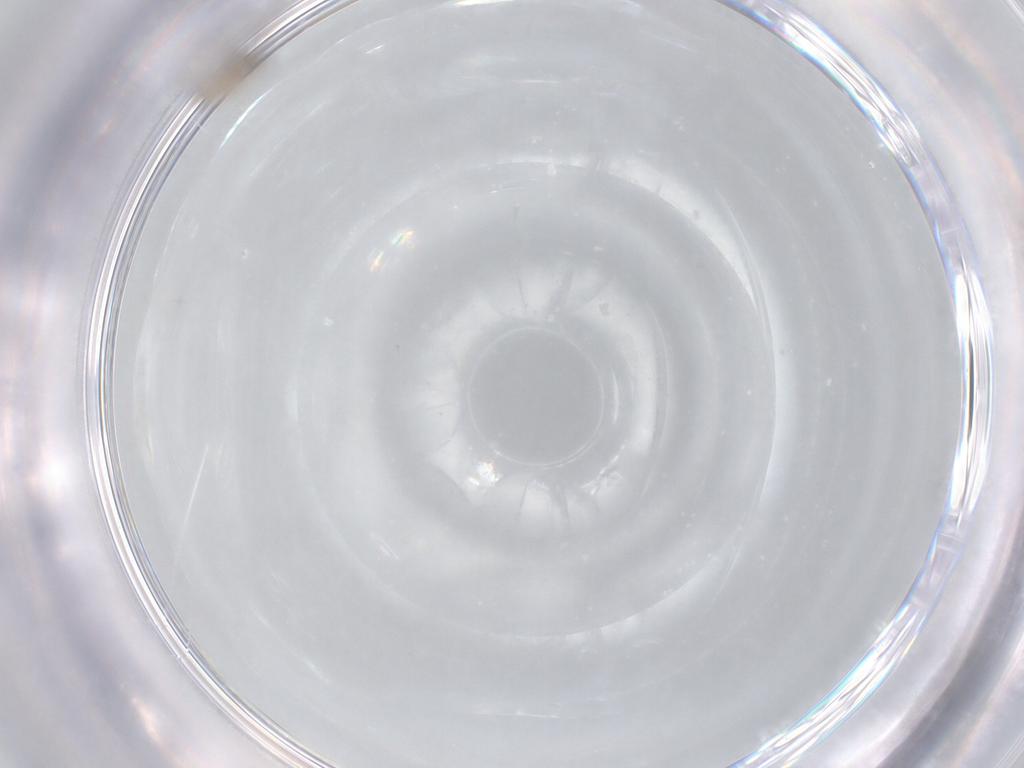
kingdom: Animalia
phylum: Arthropoda
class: Insecta
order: Diptera
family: Cecidomyiidae
